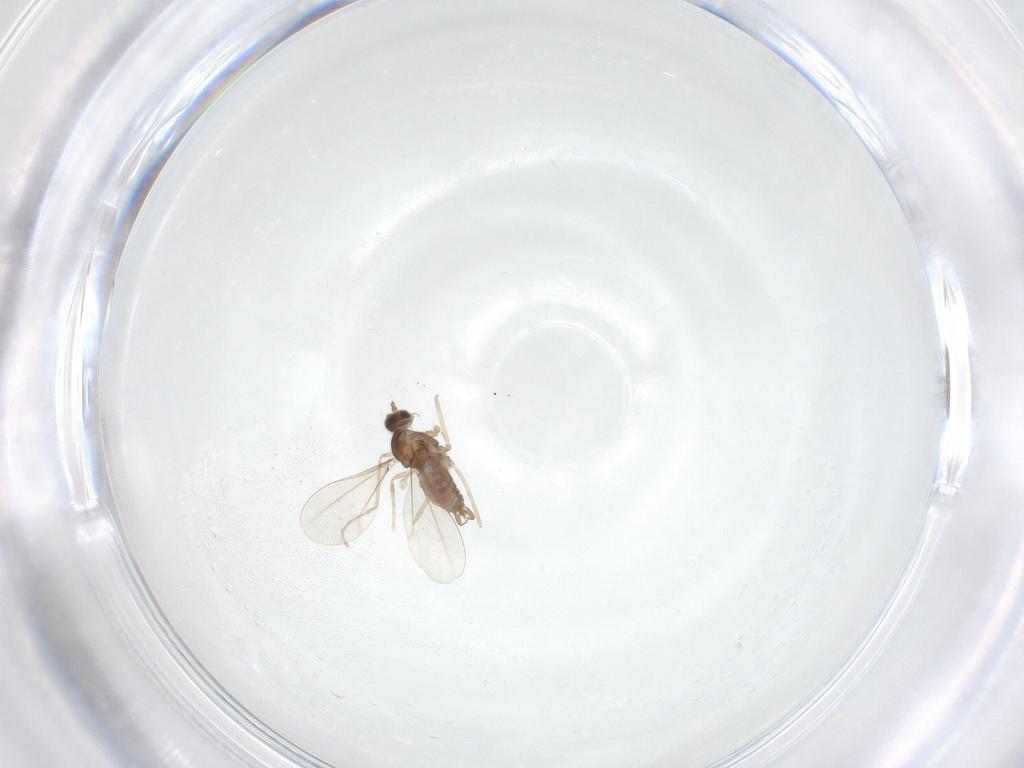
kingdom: Animalia
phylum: Arthropoda
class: Insecta
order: Diptera
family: Cecidomyiidae
